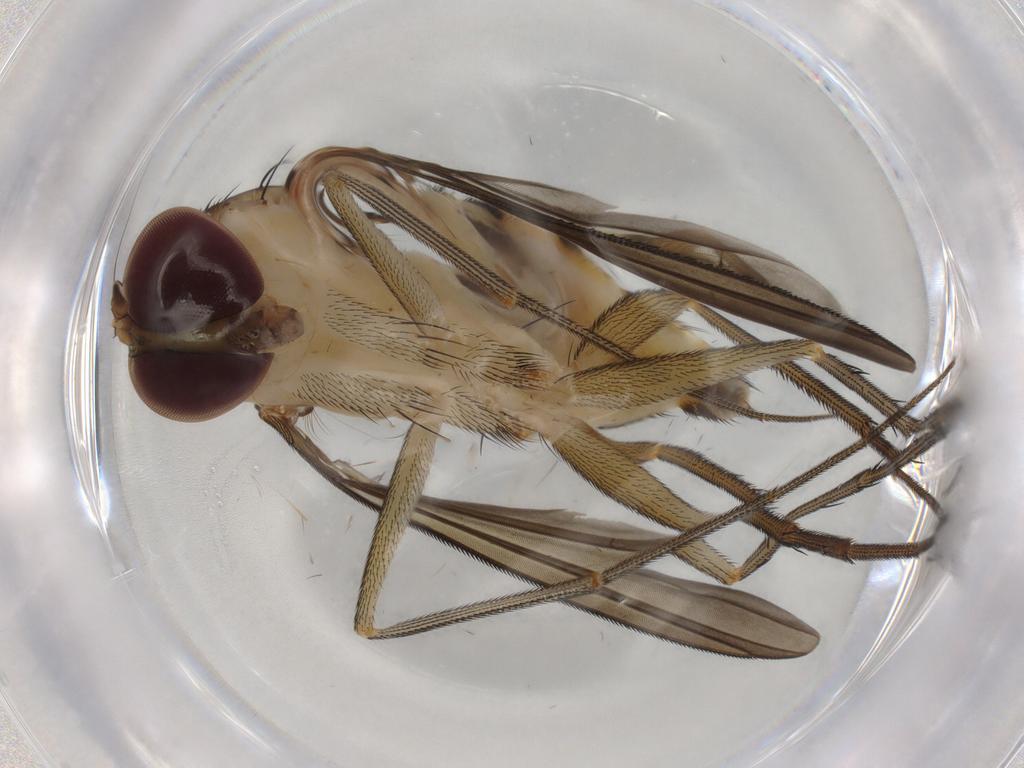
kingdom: Animalia
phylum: Arthropoda
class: Insecta
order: Diptera
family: Dolichopodidae
